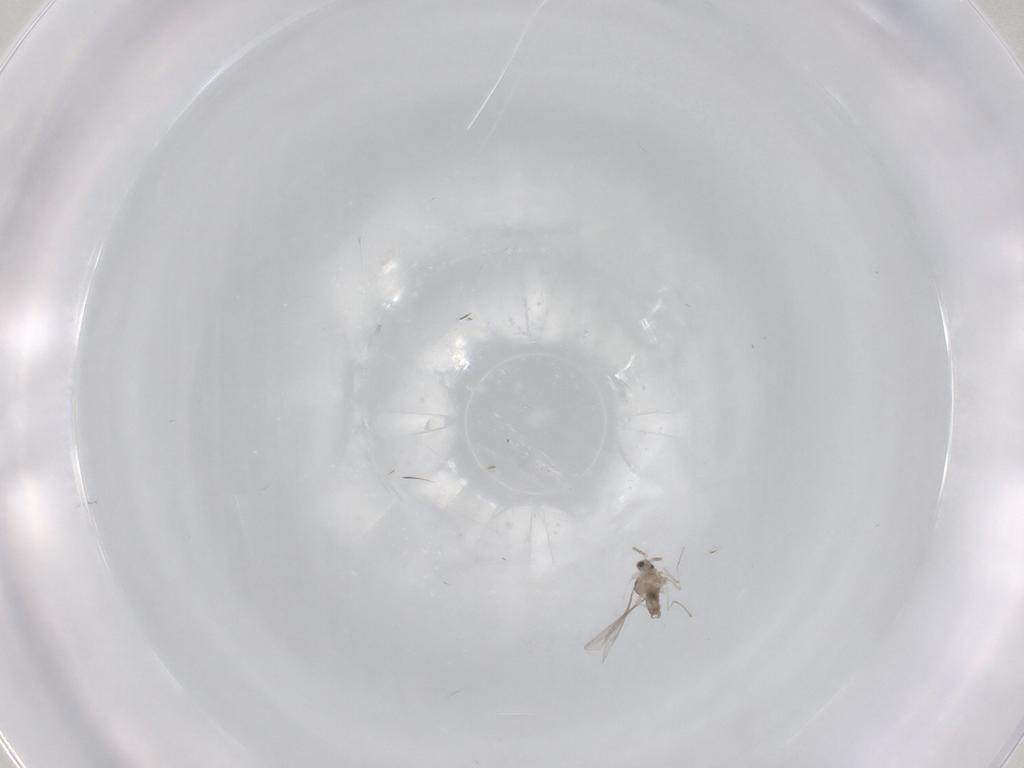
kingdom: Animalia
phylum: Arthropoda
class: Insecta
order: Diptera
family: Cecidomyiidae
